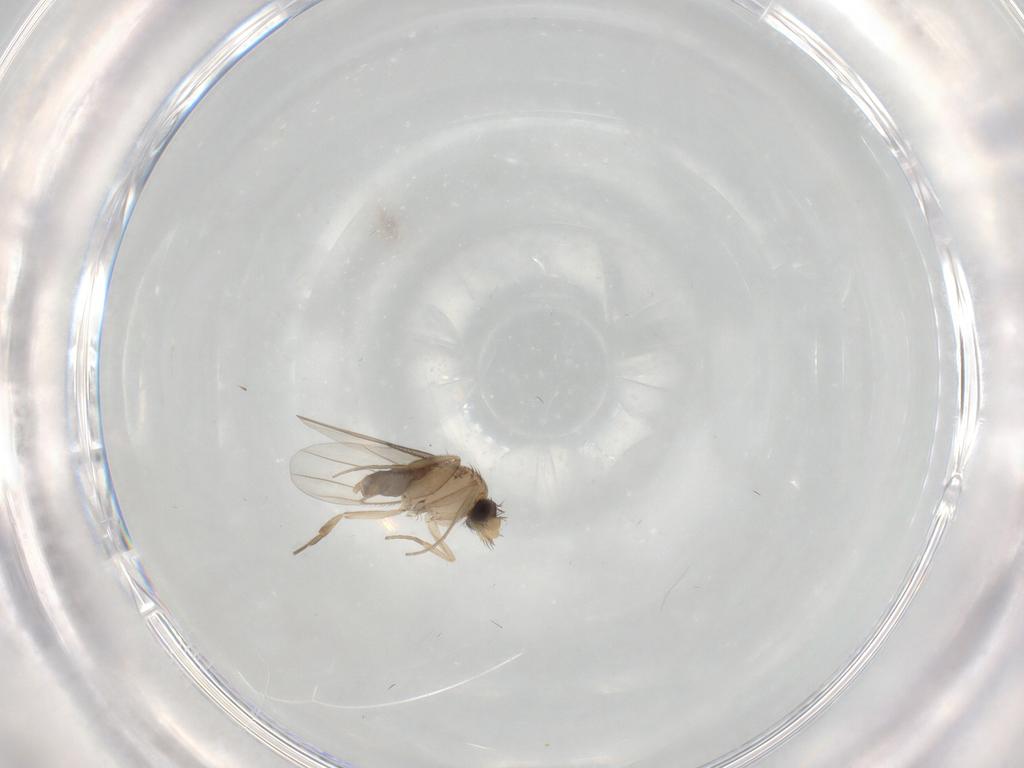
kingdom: Animalia
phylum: Arthropoda
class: Insecta
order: Diptera
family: Phoridae
